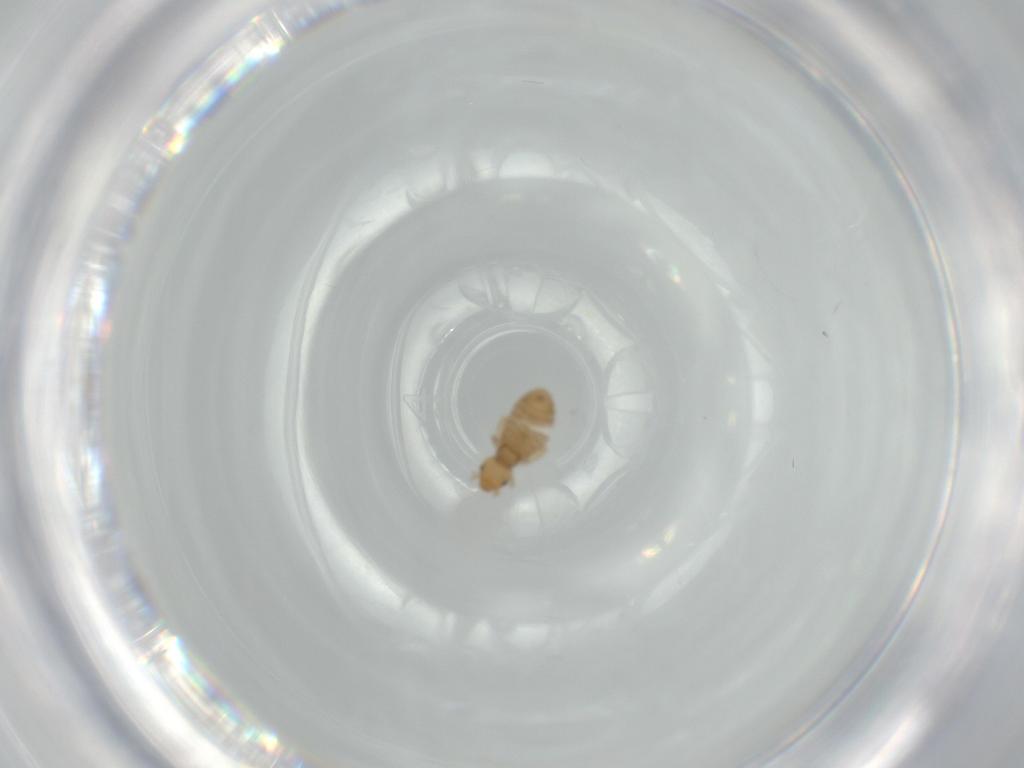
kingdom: Animalia
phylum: Arthropoda
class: Insecta
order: Psocodea
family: Liposcelididae
